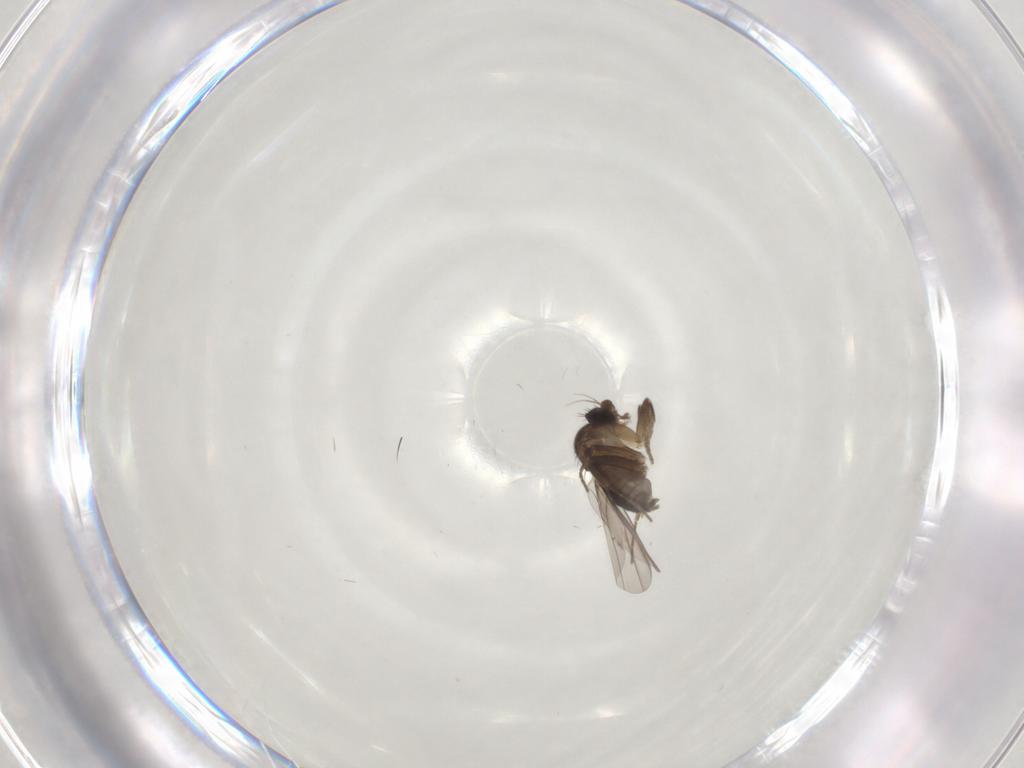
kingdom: Animalia
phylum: Arthropoda
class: Insecta
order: Diptera
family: Cecidomyiidae
